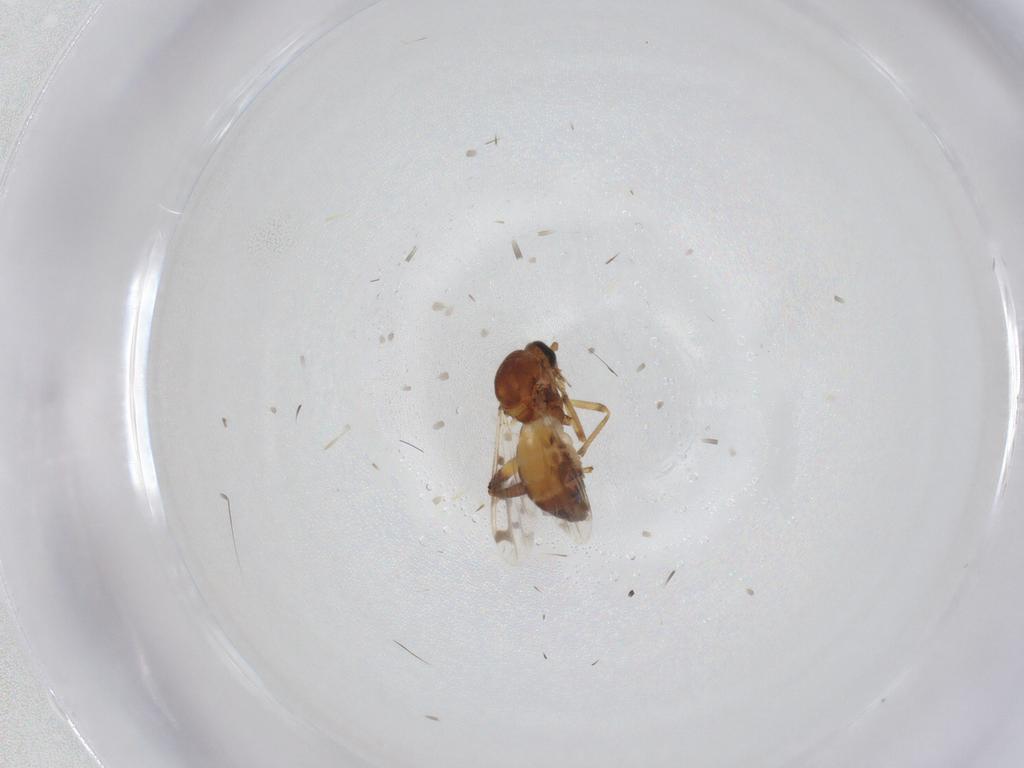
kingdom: Animalia
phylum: Arthropoda
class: Insecta
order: Diptera
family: Ceratopogonidae
